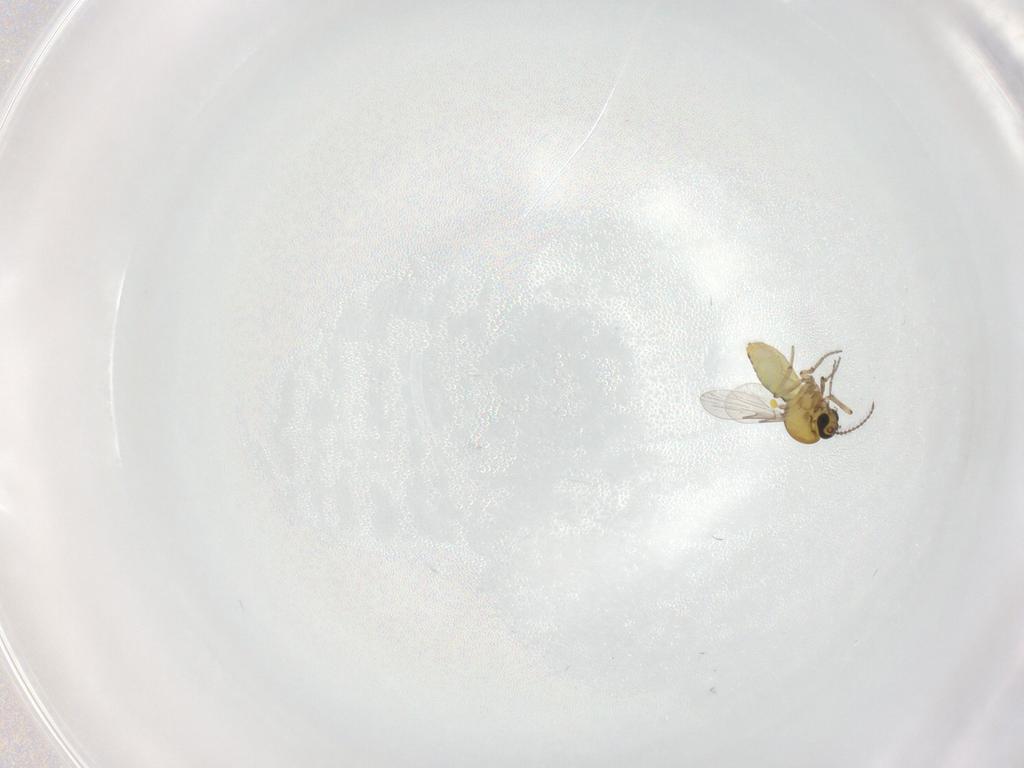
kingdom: Animalia
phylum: Arthropoda
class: Insecta
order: Diptera
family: Ceratopogonidae
